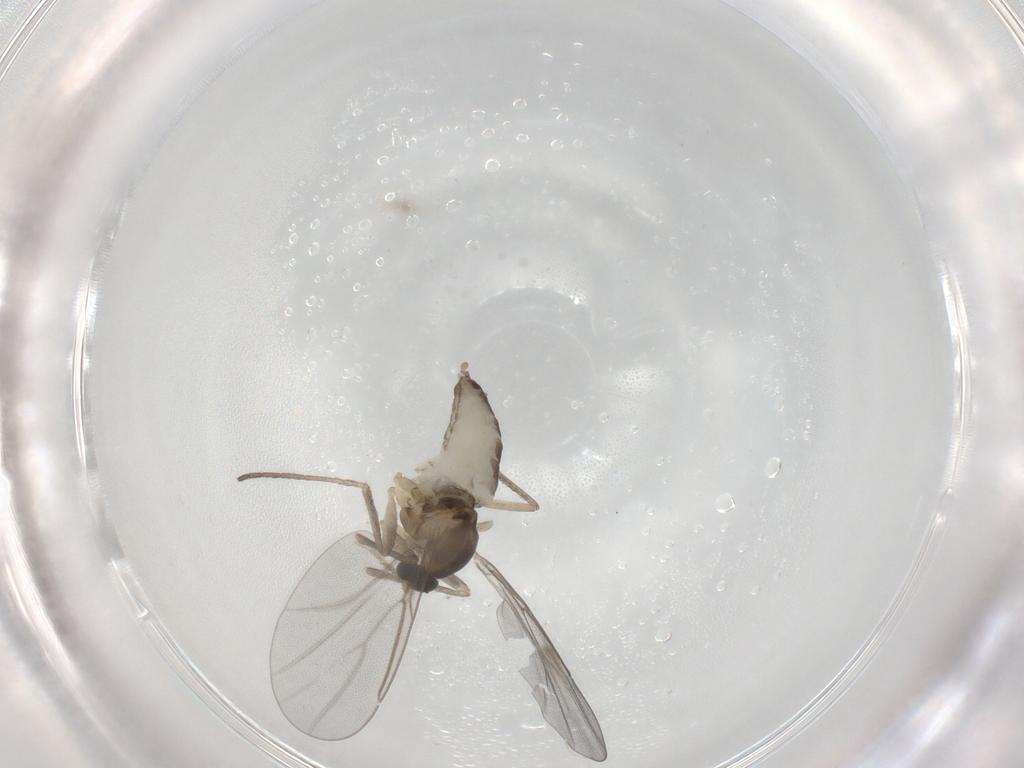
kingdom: Animalia
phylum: Arthropoda
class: Insecta
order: Diptera
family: Cecidomyiidae
